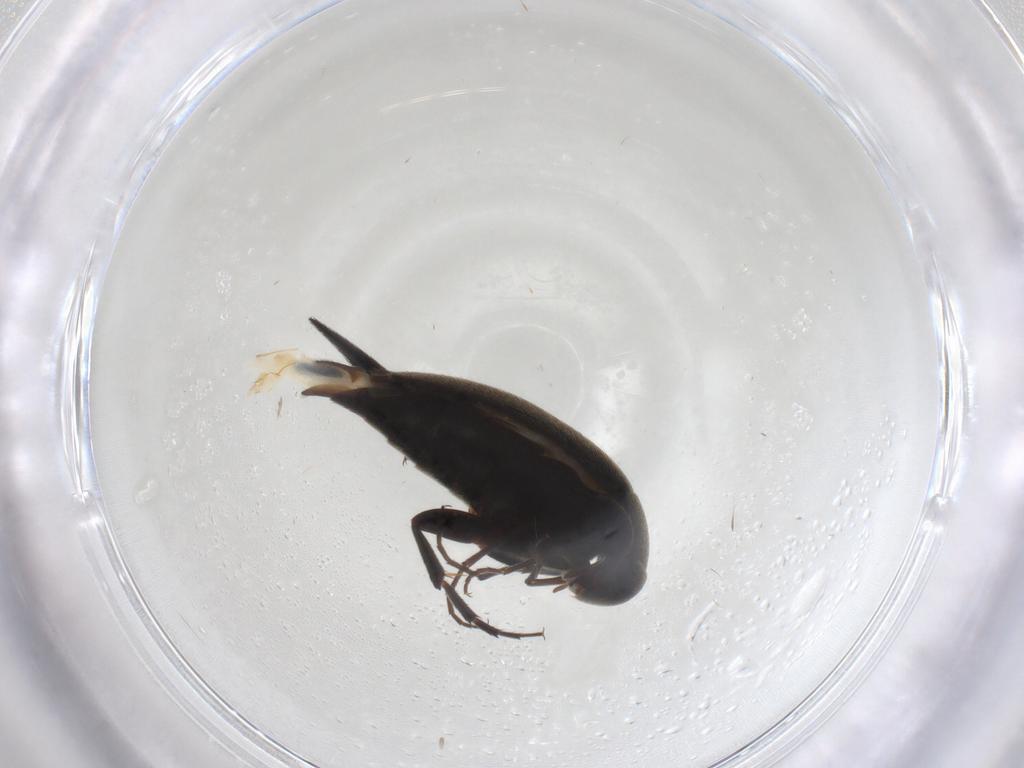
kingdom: Animalia
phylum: Arthropoda
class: Insecta
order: Coleoptera
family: Mordellidae
